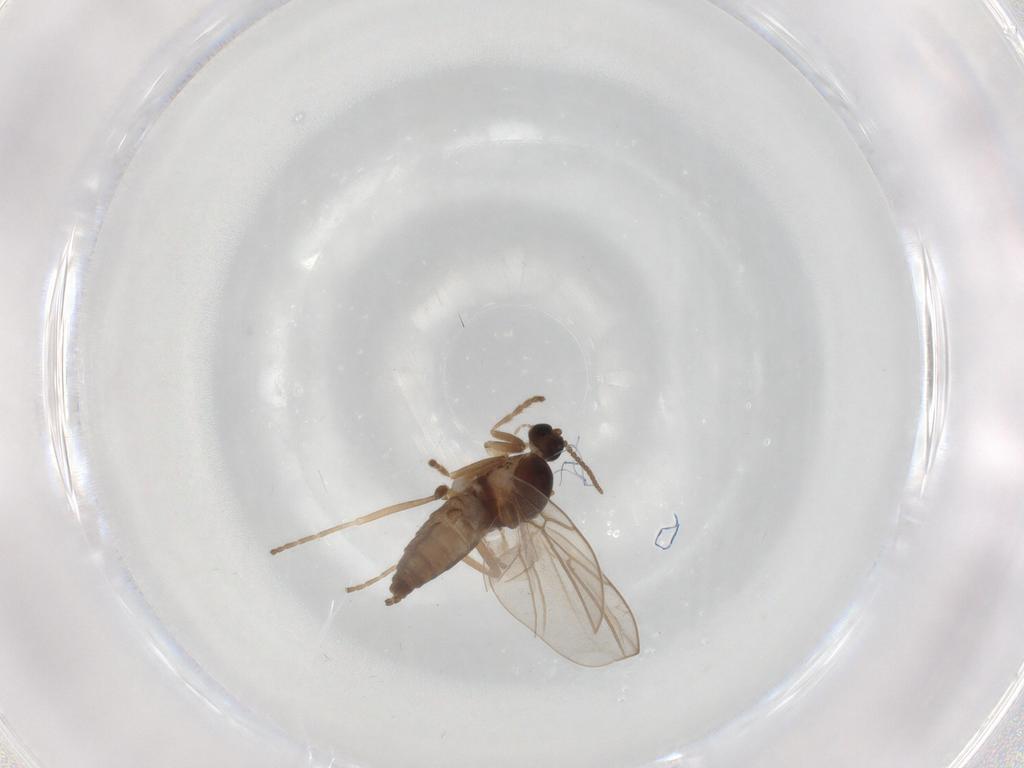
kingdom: Animalia
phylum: Arthropoda
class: Insecta
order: Diptera
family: Cecidomyiidae
